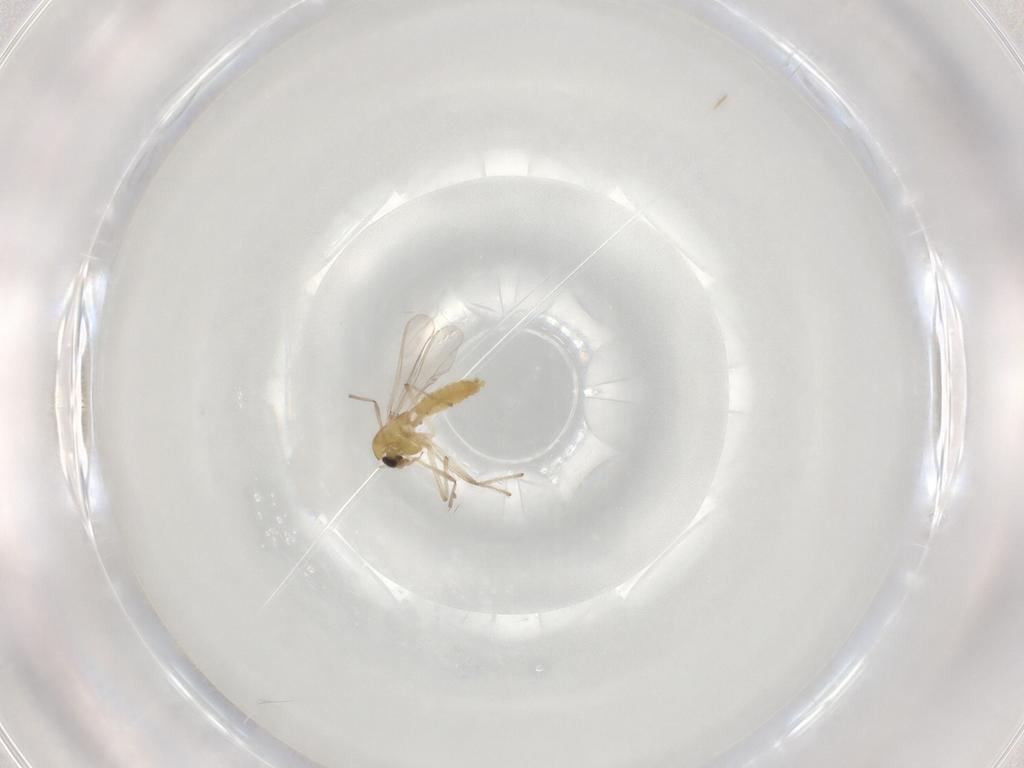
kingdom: Animalia
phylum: Arthropoda
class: Insecta
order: Diptera
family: Chironomidae
